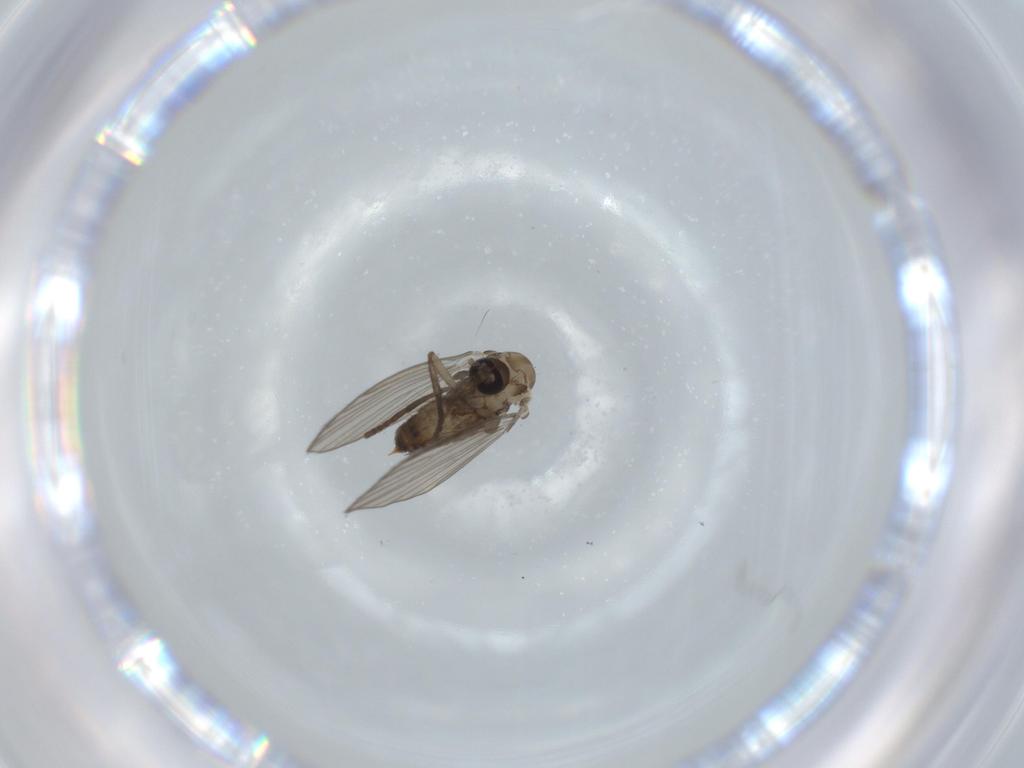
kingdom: Animalia
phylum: Arthropoda
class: Insecta
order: Diptera
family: Psychodidae
